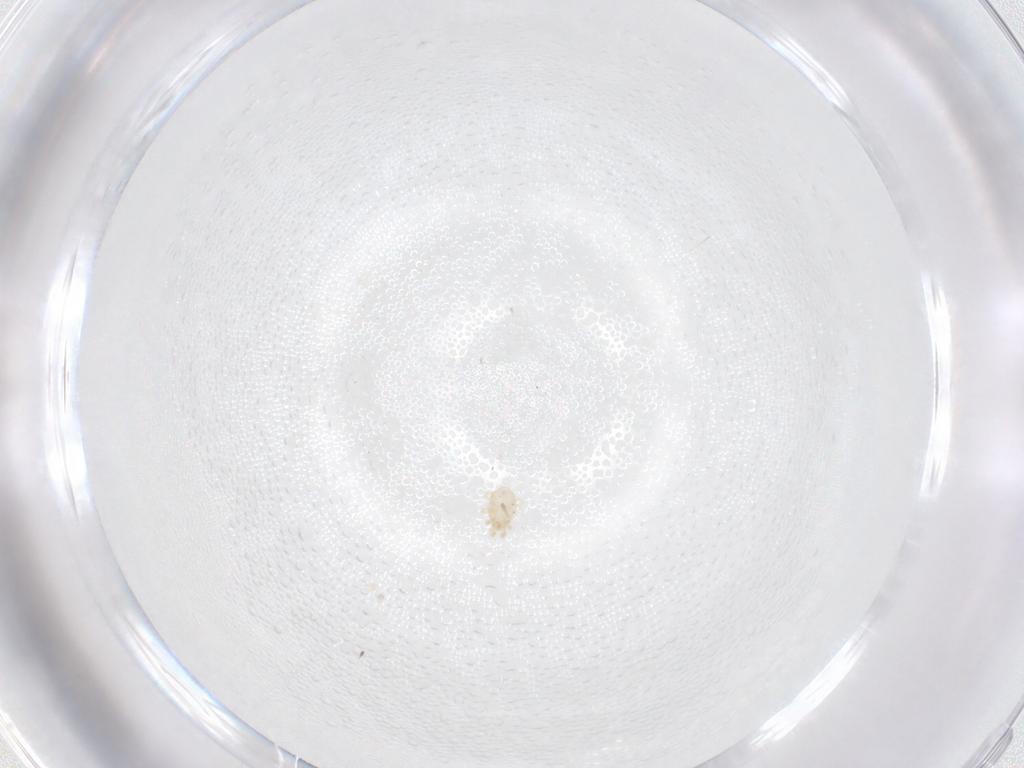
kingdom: Animalia
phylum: Arthropoda
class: Arachnida
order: Mesostigmata
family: Phytoseiidae
